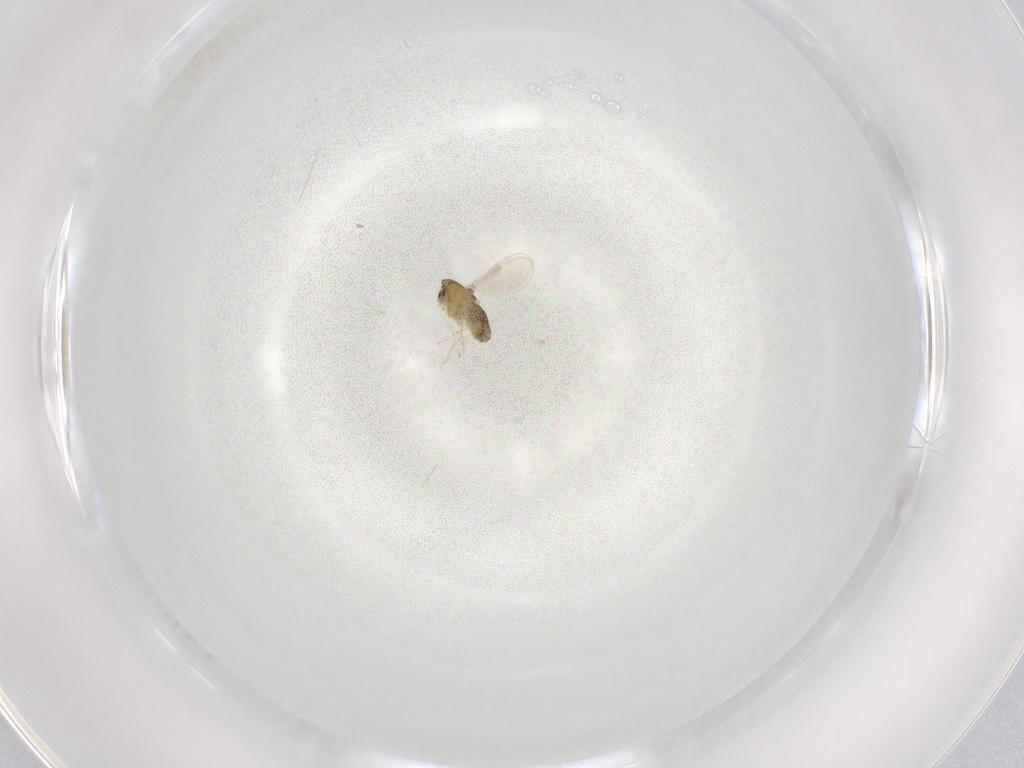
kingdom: Animalia
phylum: Arthropoda
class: Insecta
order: Diptera
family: Chironomidae
